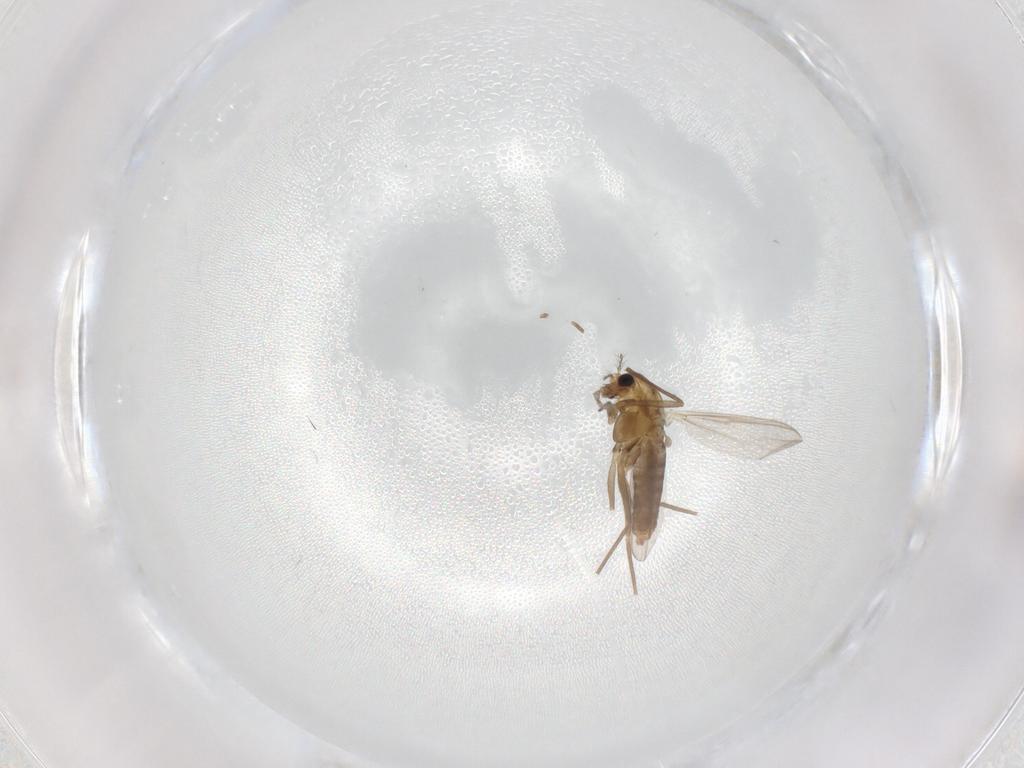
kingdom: Animalia
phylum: Arthropoda
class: Insecta
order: Diptera
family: Chironomidae
